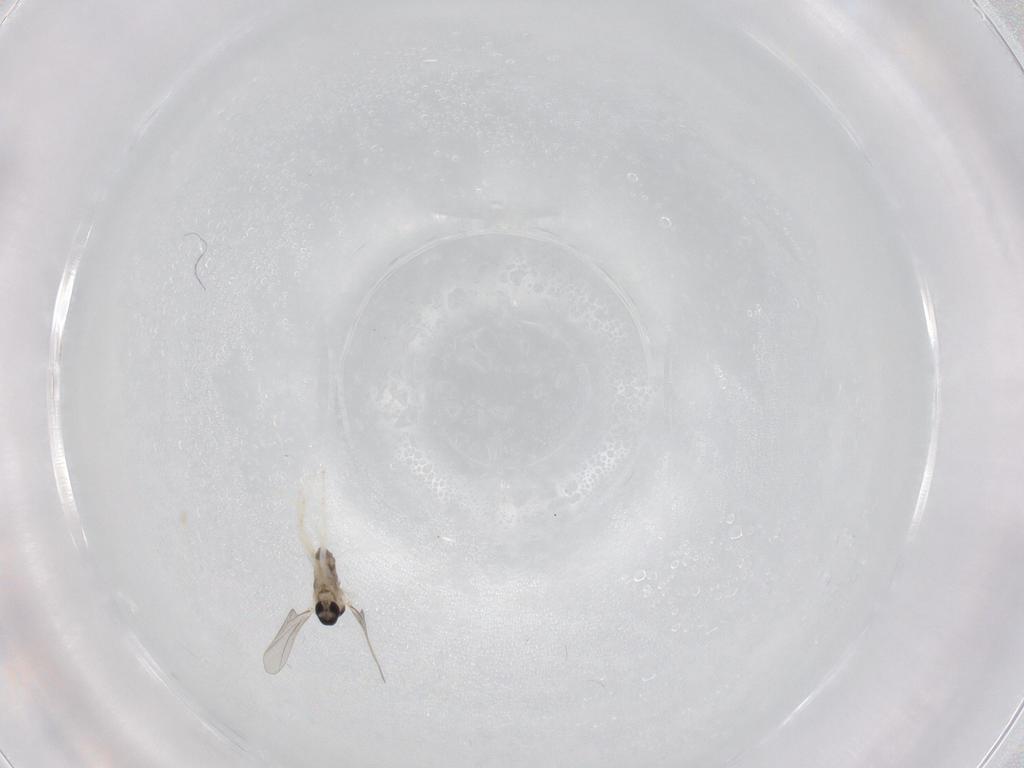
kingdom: Animalia
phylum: Arthropoda
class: Insecta
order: Diptera
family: Cecidomyiidae
